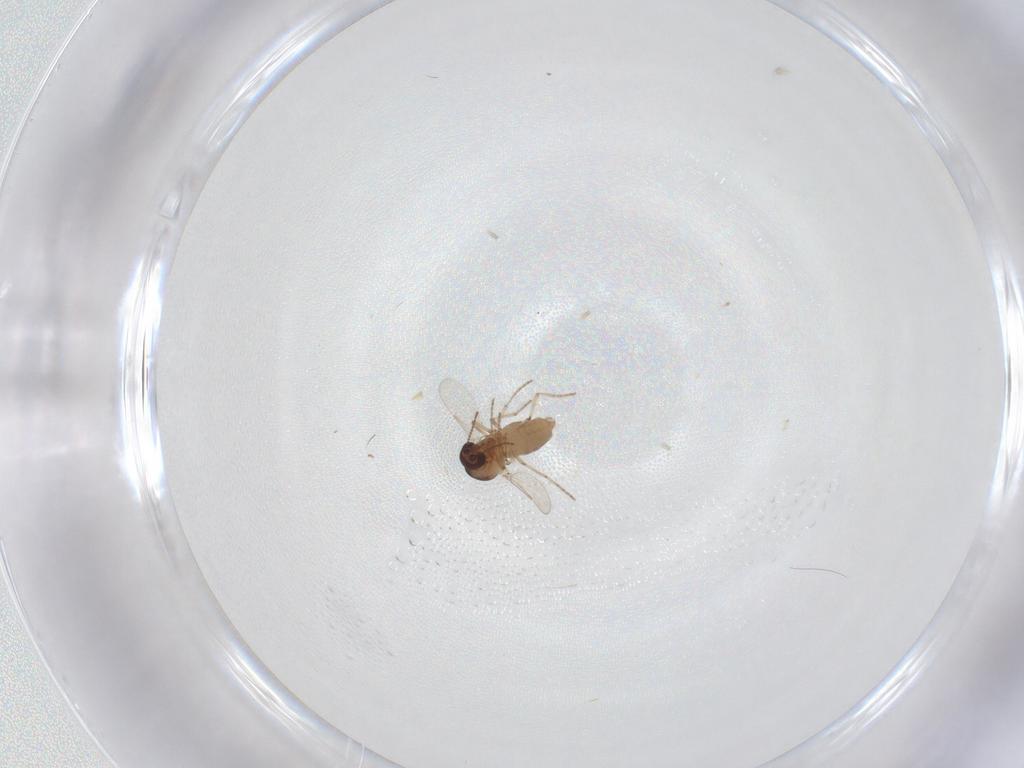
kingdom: Animalia
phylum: Arthropoda
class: Insecta
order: Diptera
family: Ceratopogonidae
